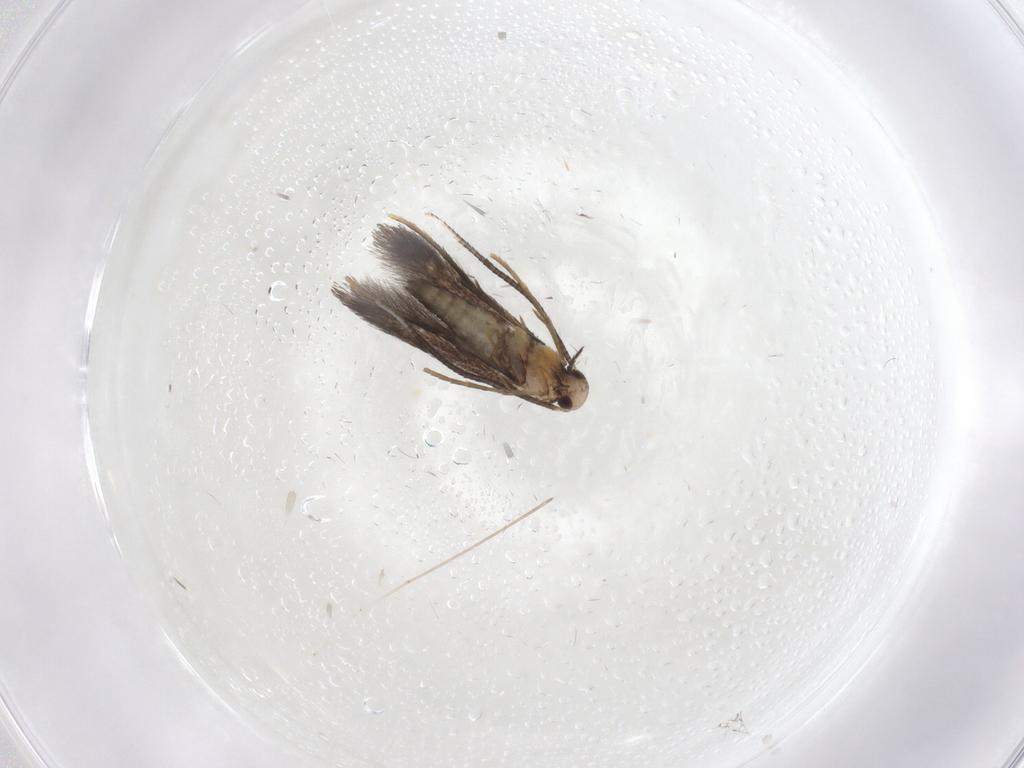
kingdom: Animalia
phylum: Arthropoda
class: Insecta
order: Lepidoptera
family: Gracillariidae
